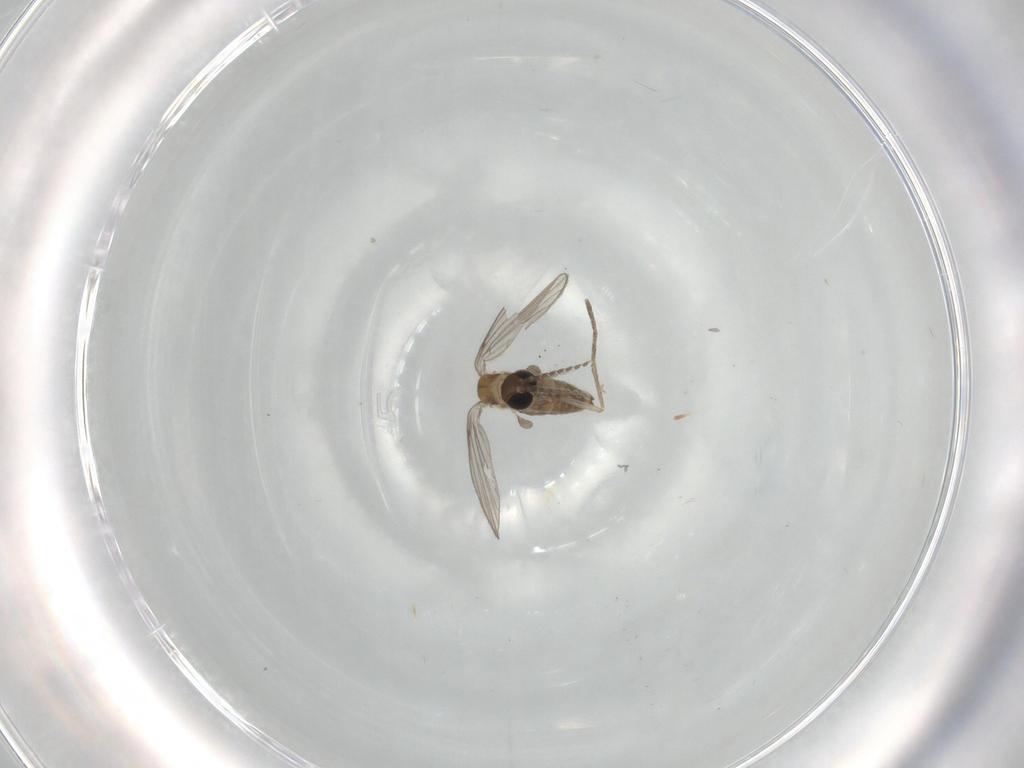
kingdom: Animalia
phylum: Arthropoda
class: Insecta
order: Diptera
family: Psychodidae
